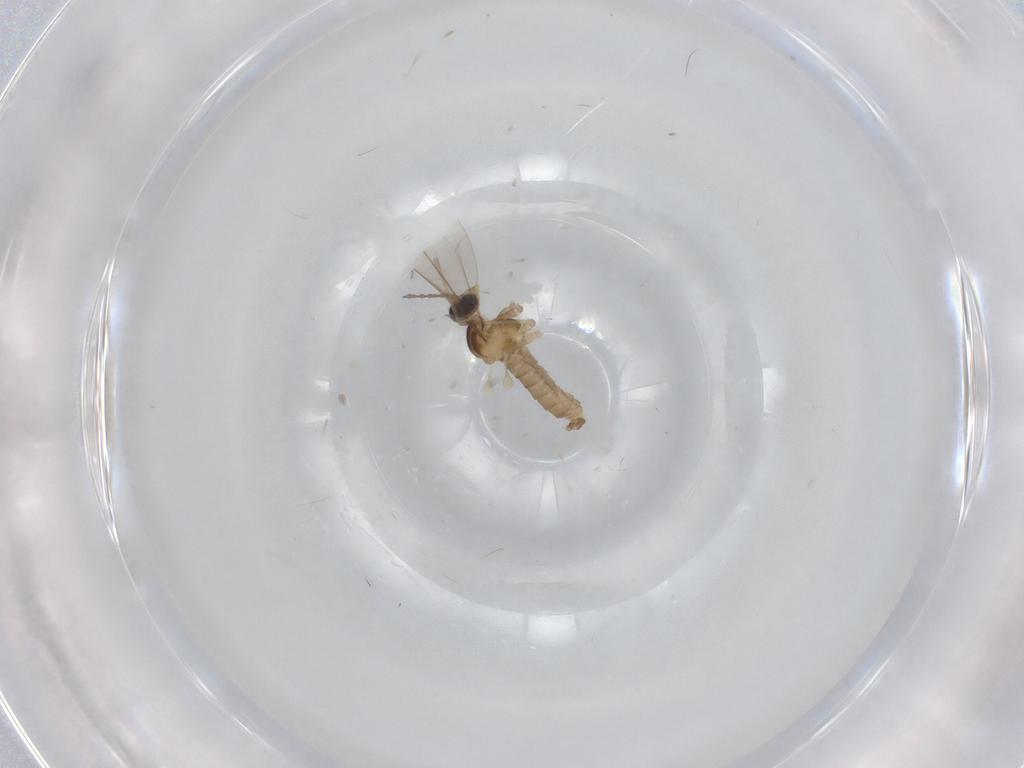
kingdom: Animalia
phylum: Arthropoda
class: Insecta
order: Diptera
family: Cecidomyiidae
